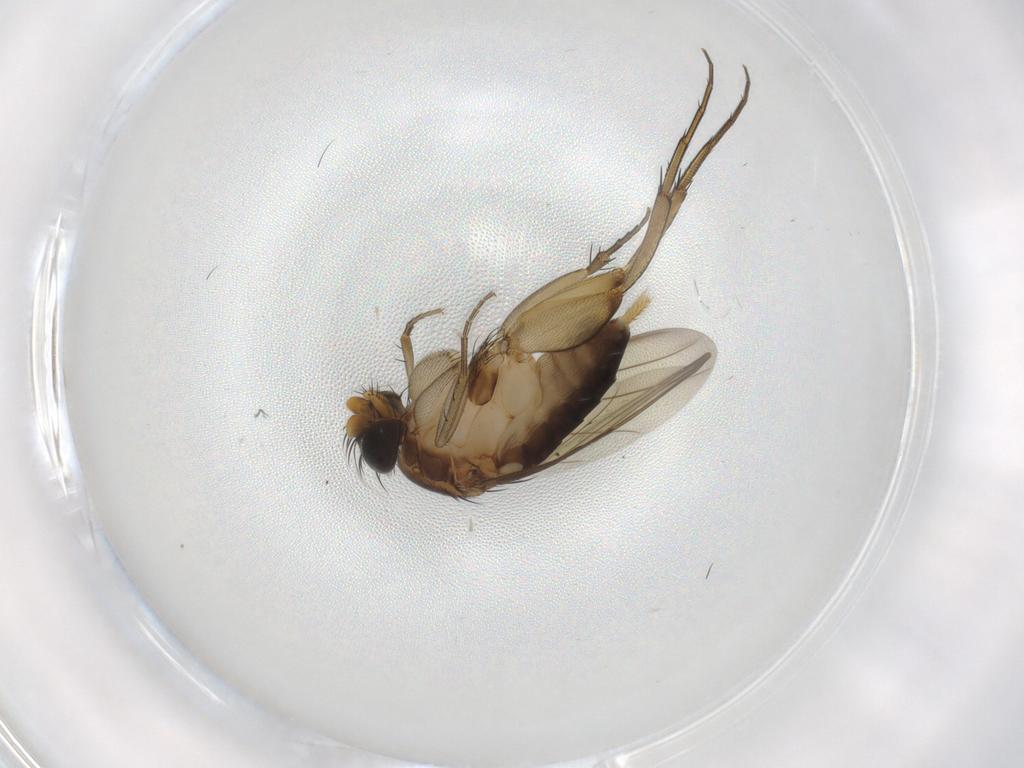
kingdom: Animalia
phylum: Arthropoda
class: Insecta
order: Diptera
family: Phoridae
